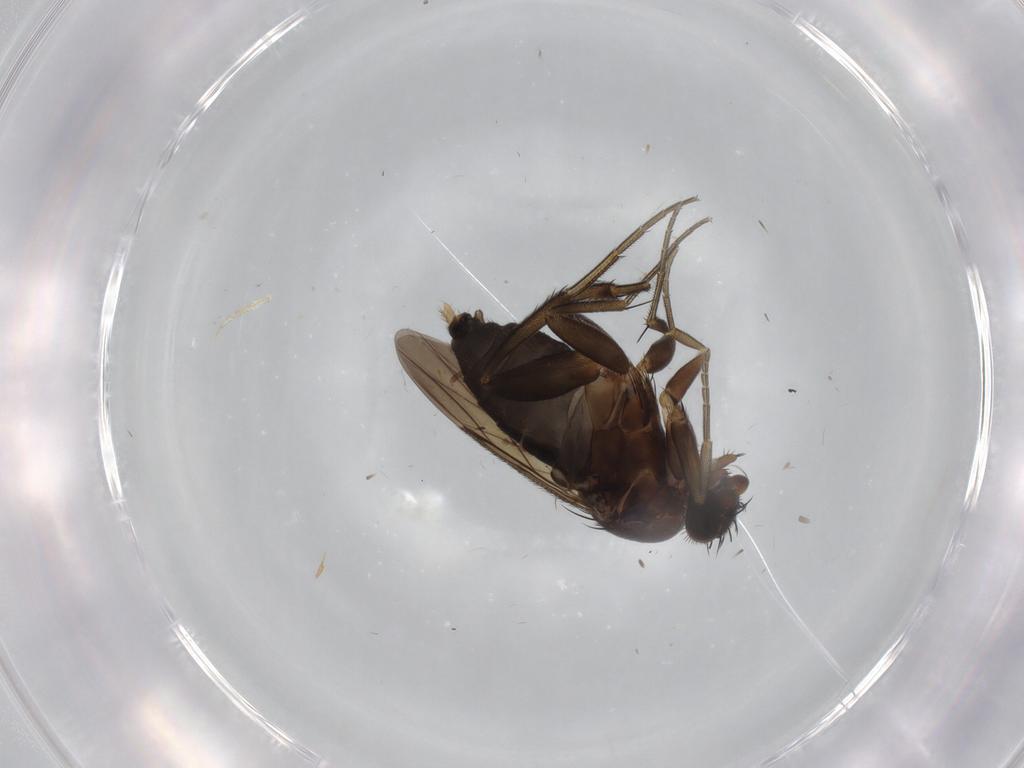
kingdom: Animalia
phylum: Arthropoda
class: Insecta
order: Diptera
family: Phoridae
